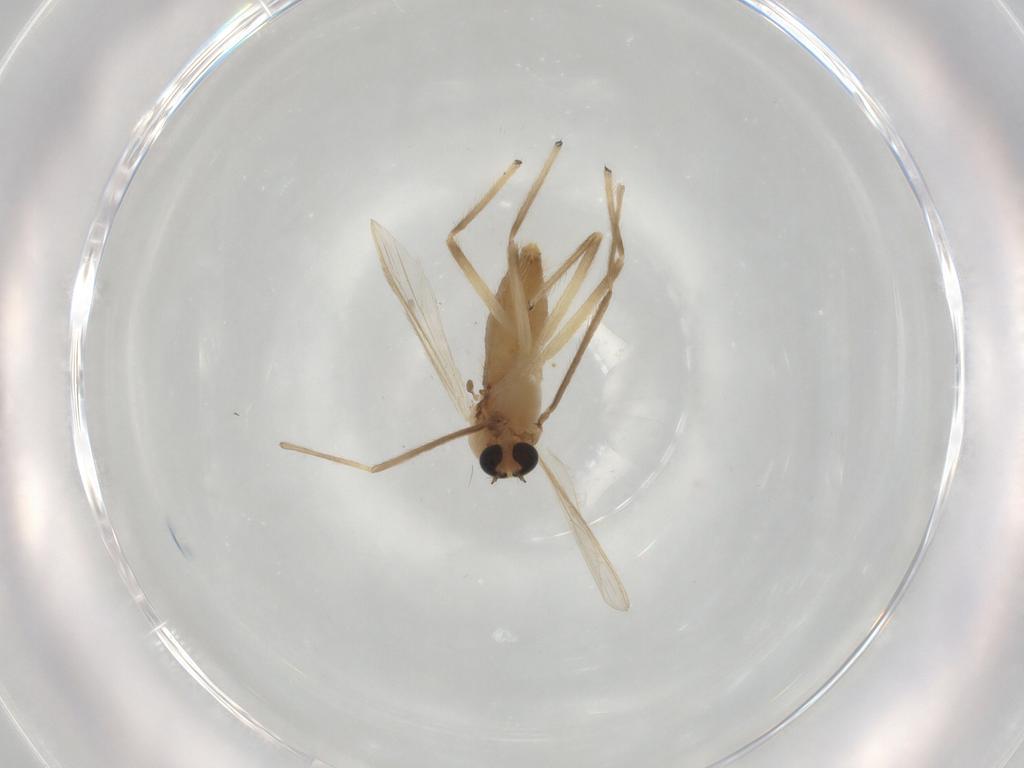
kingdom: Animalia
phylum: Arthropoda
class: Insecta
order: Diptera
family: Chironomidae
